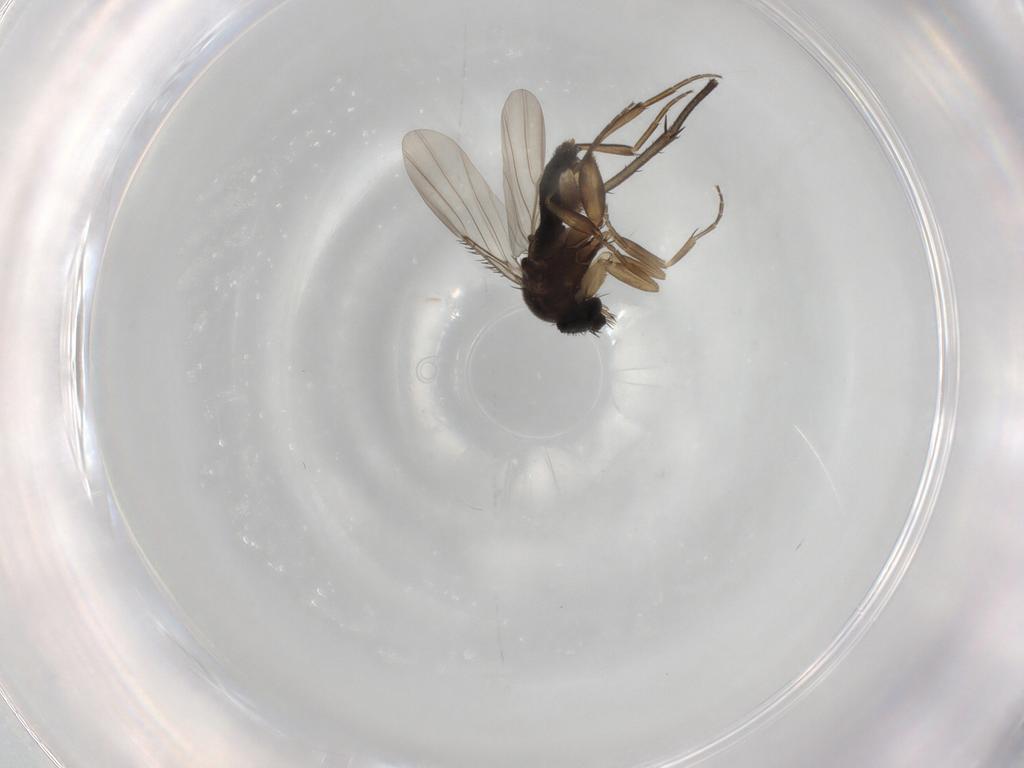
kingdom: Animalia
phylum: Arthropoda
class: Insecta
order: Diptera
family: Phoridae
